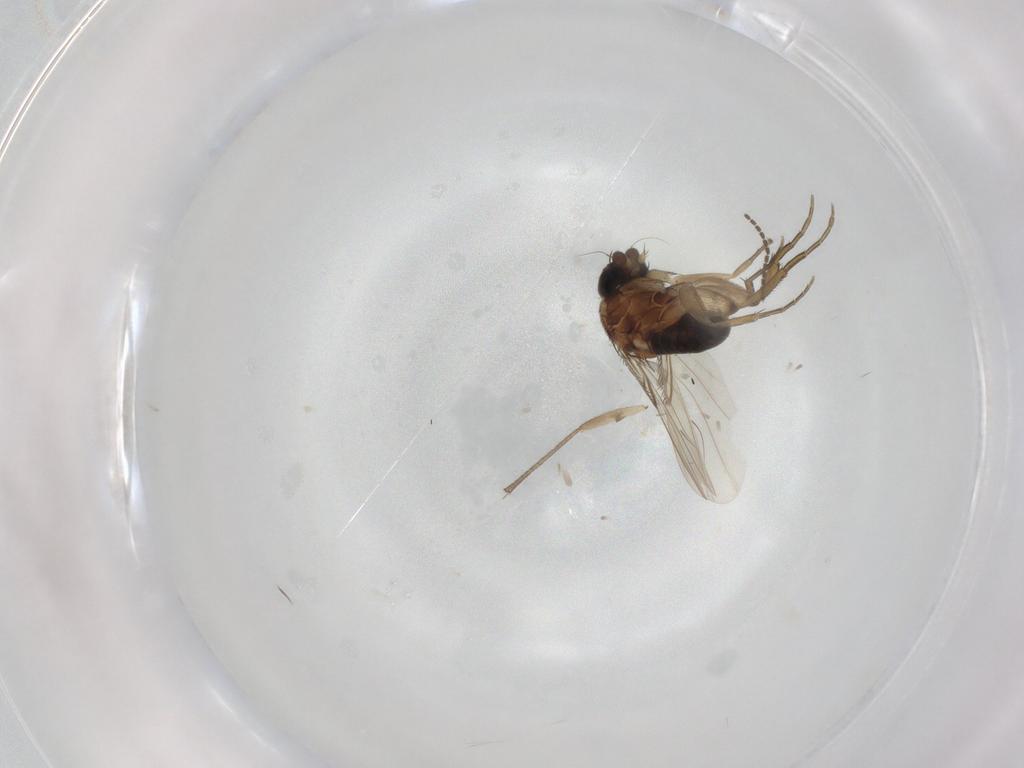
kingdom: Animalia
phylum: Arthropoda
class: Insecta
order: Diptera
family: Phoridae
